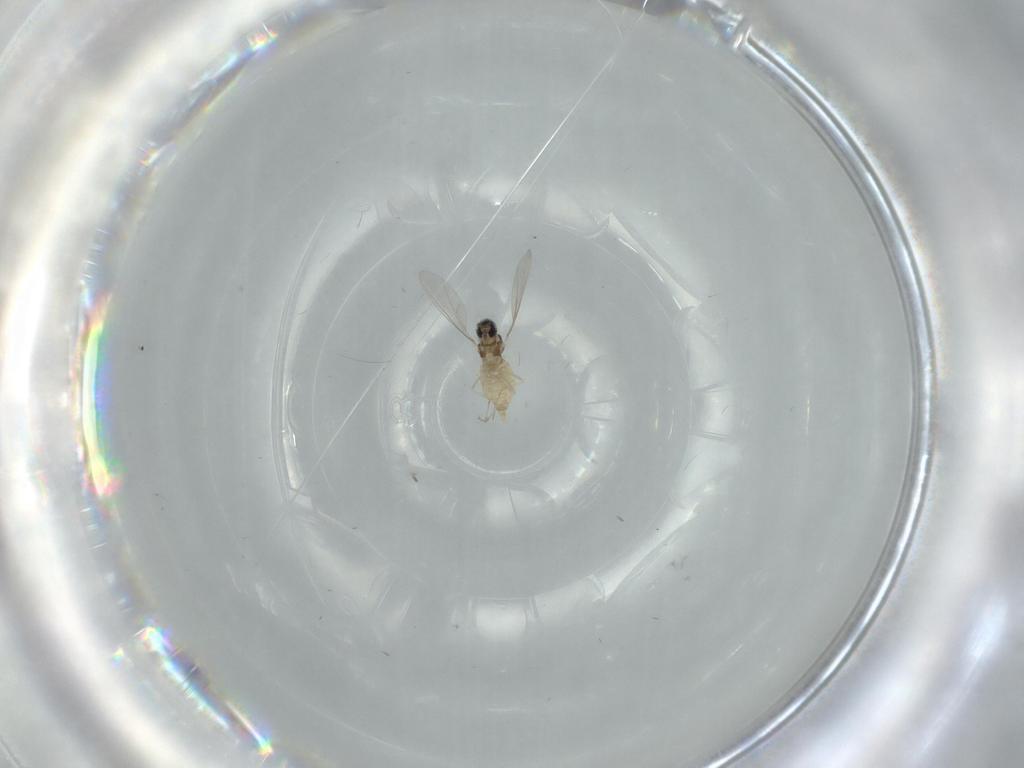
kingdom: Animalia
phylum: Arthropoda
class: Insecta
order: Diptera
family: Cecidomyiidae
